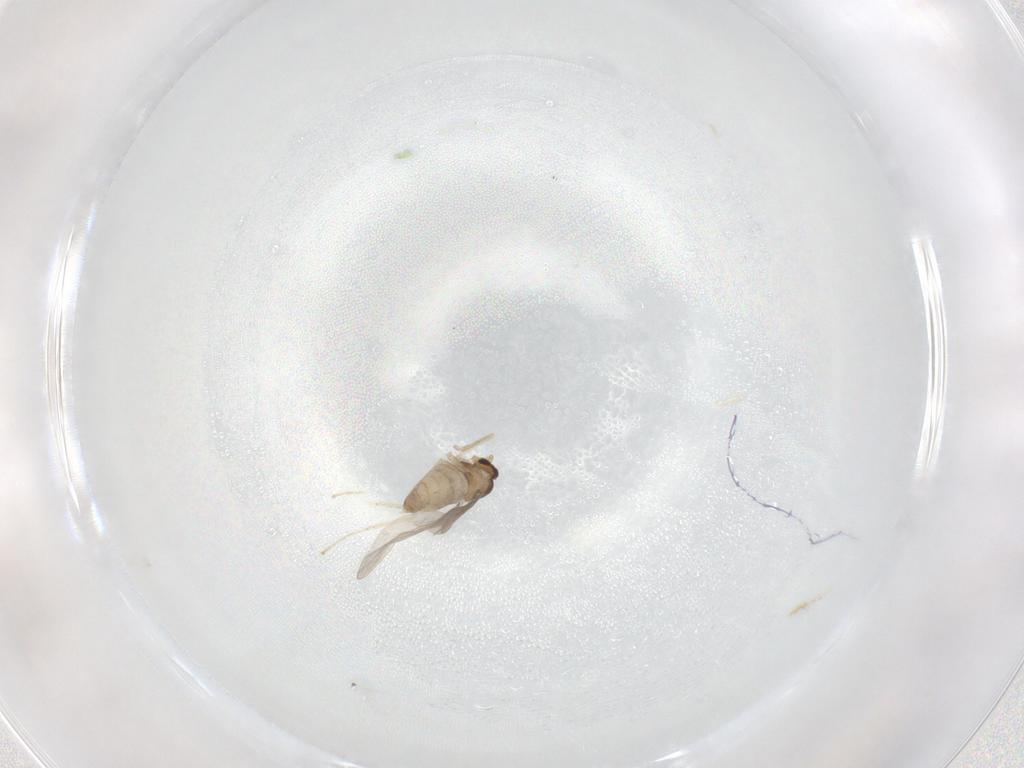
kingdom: Animalia
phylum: Arthropoda
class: Insecta
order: Diptera
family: Cecidomyiidae
